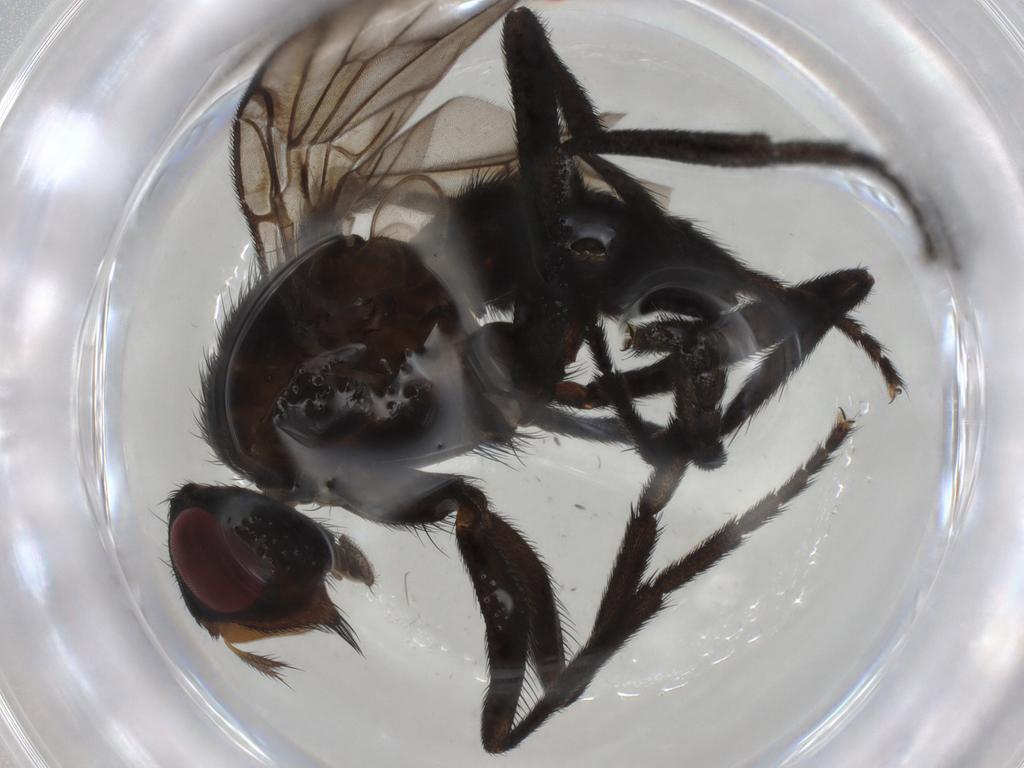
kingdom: Animalia
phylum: Arthropoda
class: Insecta
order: Diptera
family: Calliphoridae
